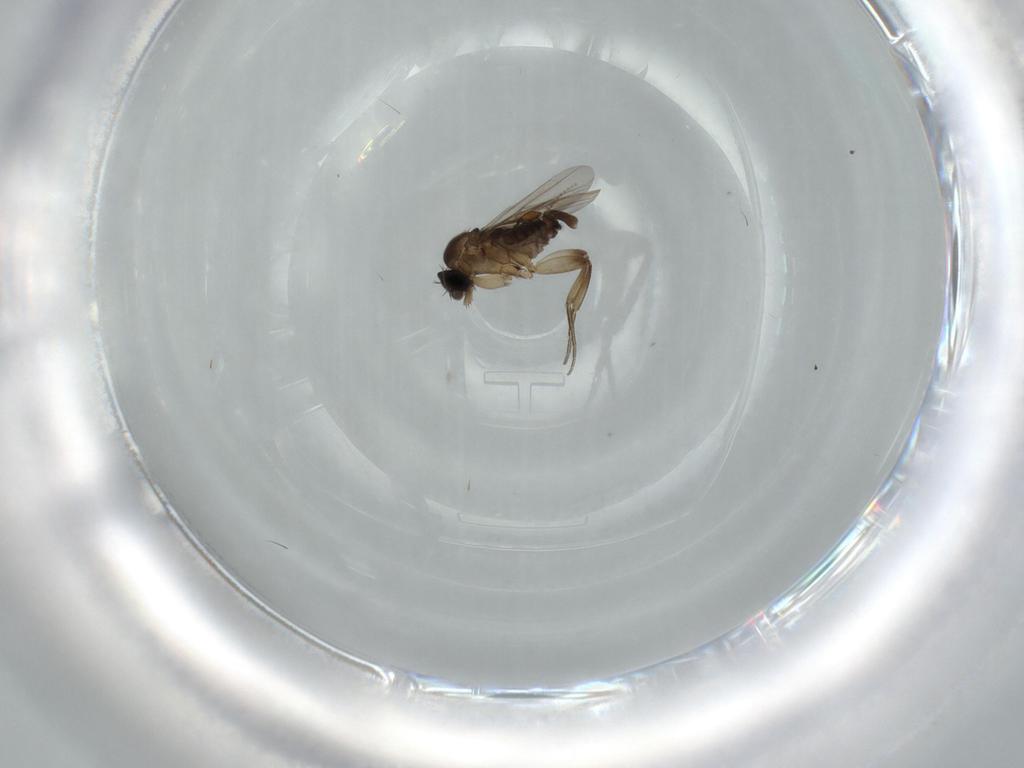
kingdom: Animalia
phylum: Arthropoda
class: Insecta
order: Diptera
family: Phoridae
